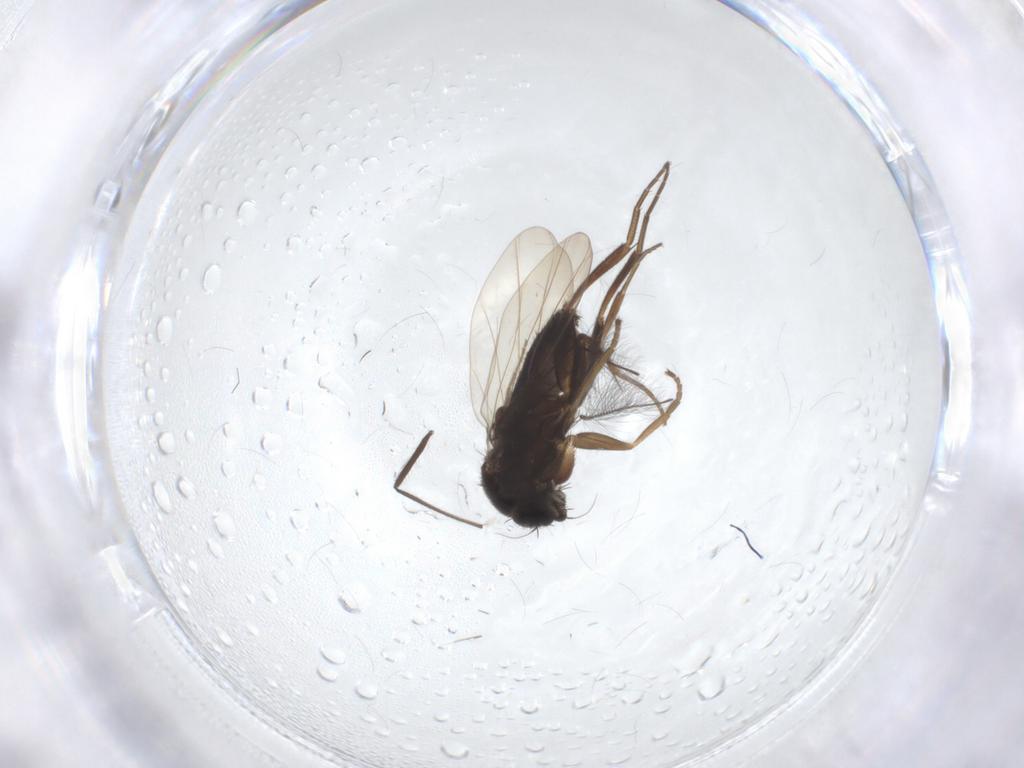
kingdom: Animalia
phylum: Arthropoda
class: Insecta
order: Diptera
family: Phoridae
